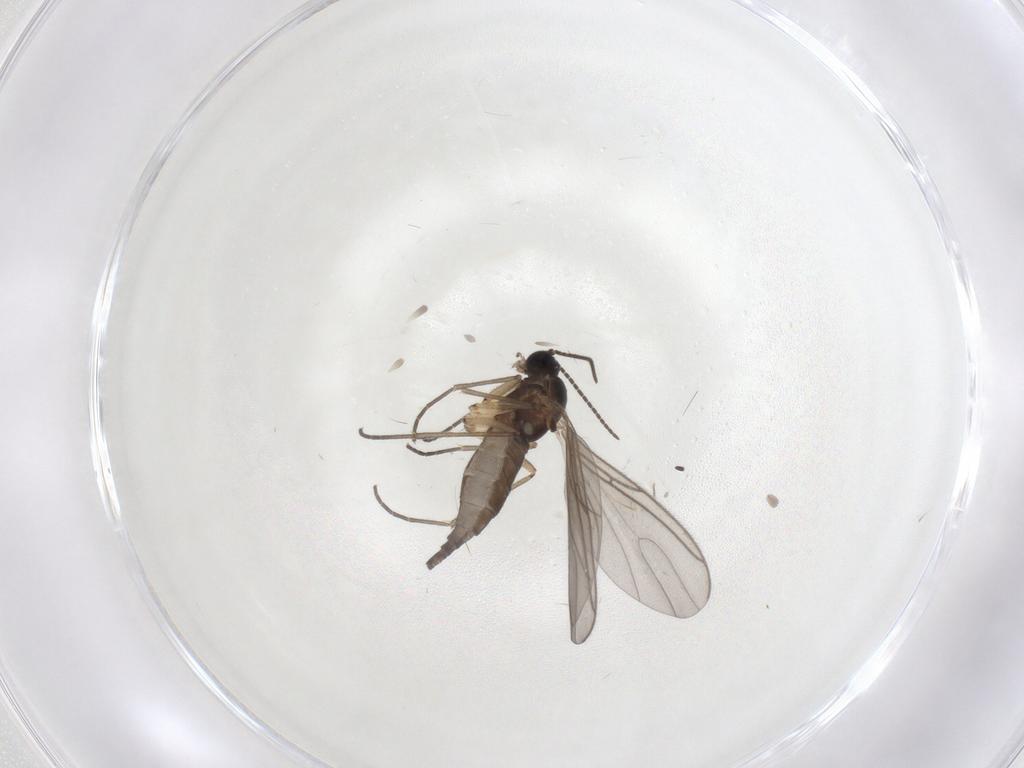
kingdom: Animalia
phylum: Arthropoda
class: Insecta
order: Diptera
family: Sciaridae
